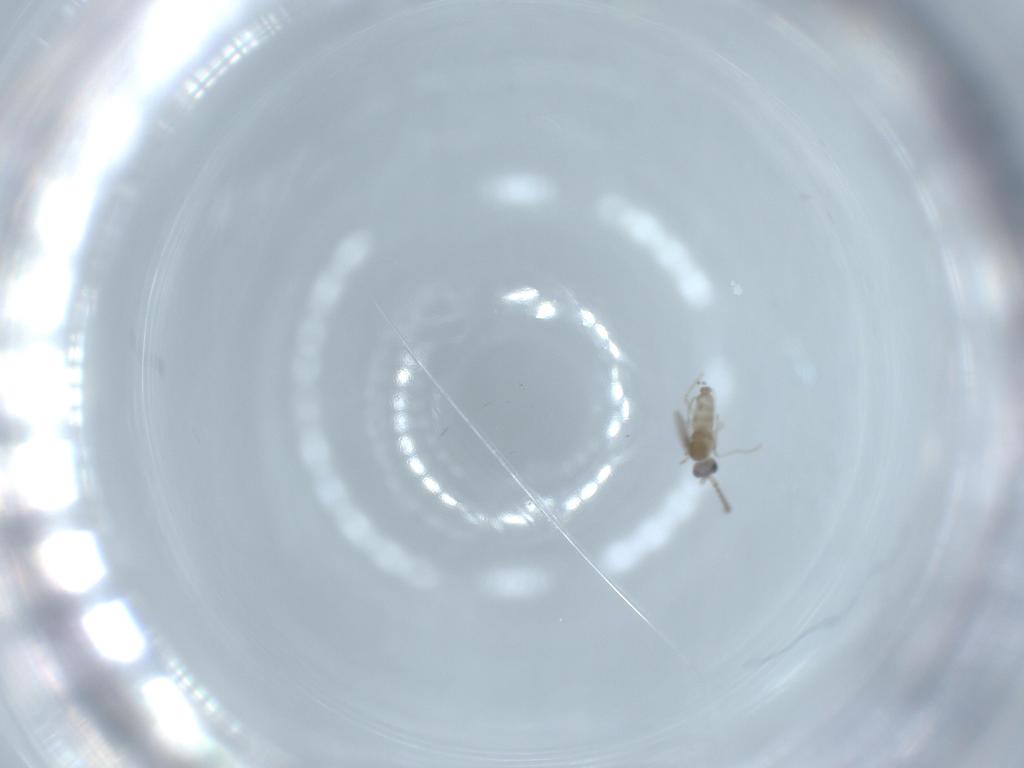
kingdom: Animalia
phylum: Arthropoda
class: Insecta
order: Diptera
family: Cecidomyiidae
